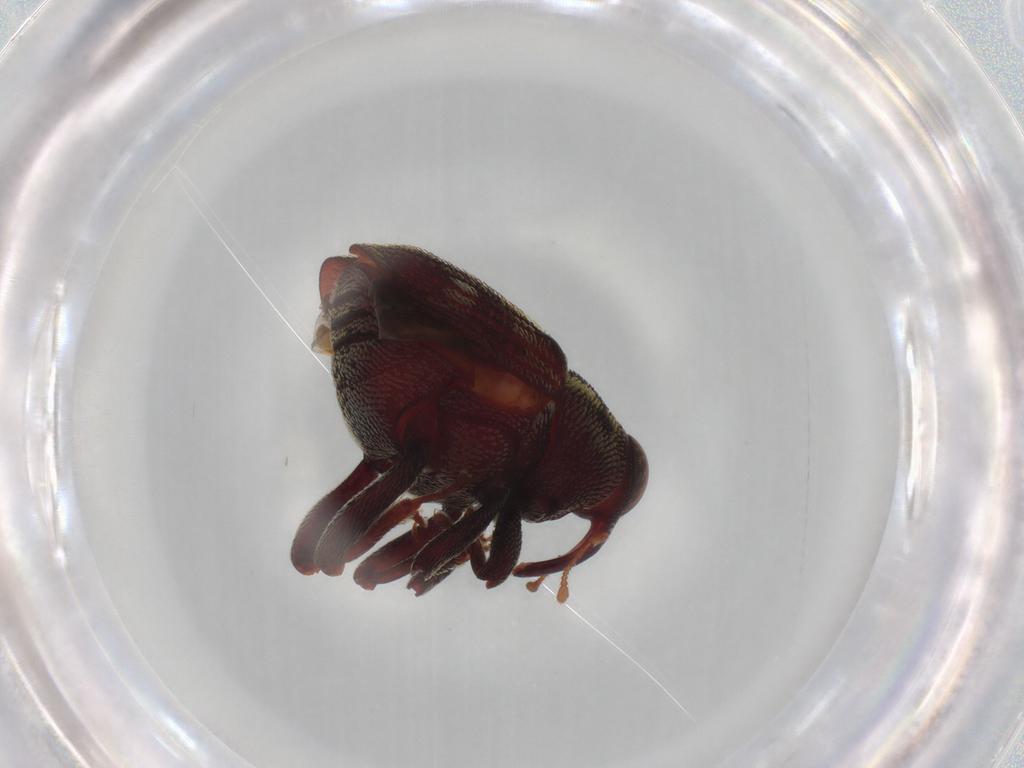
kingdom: Animalia
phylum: Arthropoda
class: Insecta
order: Coleoptera
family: Curculionidae
